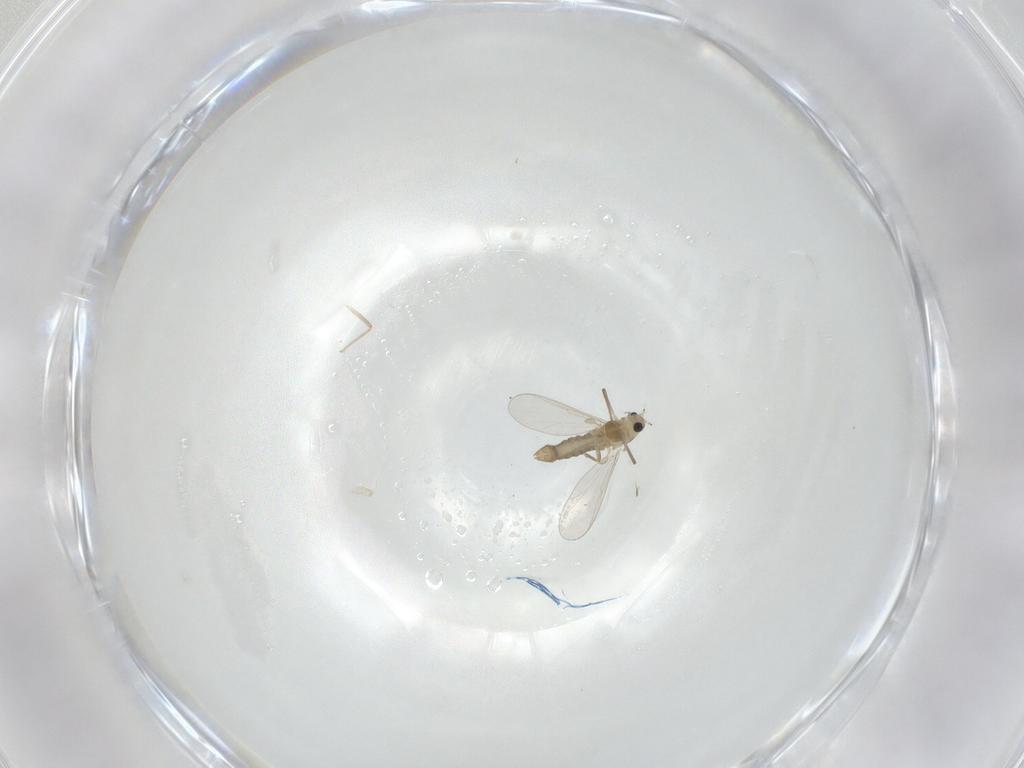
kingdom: Animalia
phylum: Arthropoda
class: Insecta
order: Diptera
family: Chironomidae
